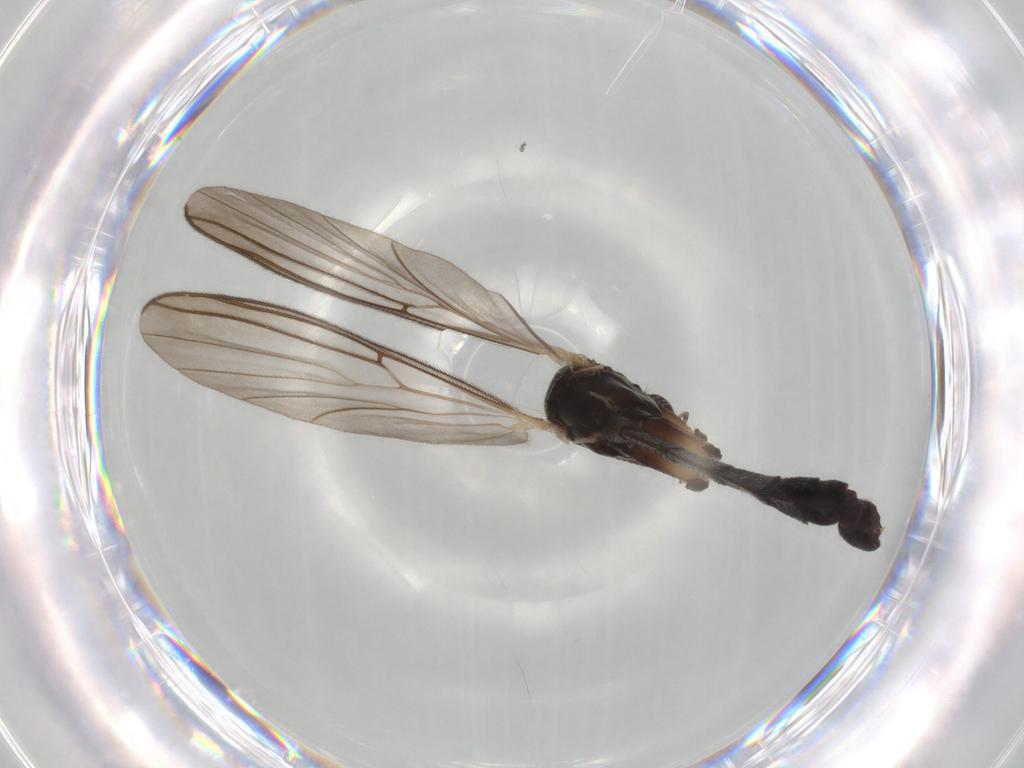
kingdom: Animalia
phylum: Arthropoda
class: Insecta
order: Diptera
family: Mycetophilidae
